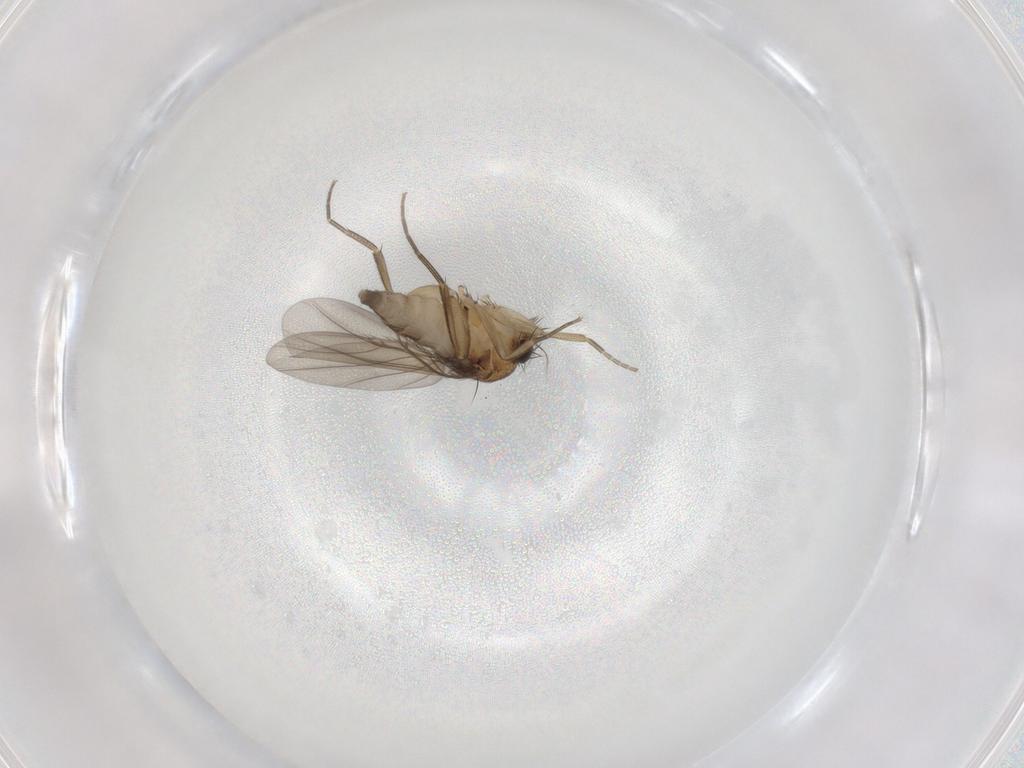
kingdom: Animalia
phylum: Arthropoda
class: Insecta
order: Diptera
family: Phoridae
